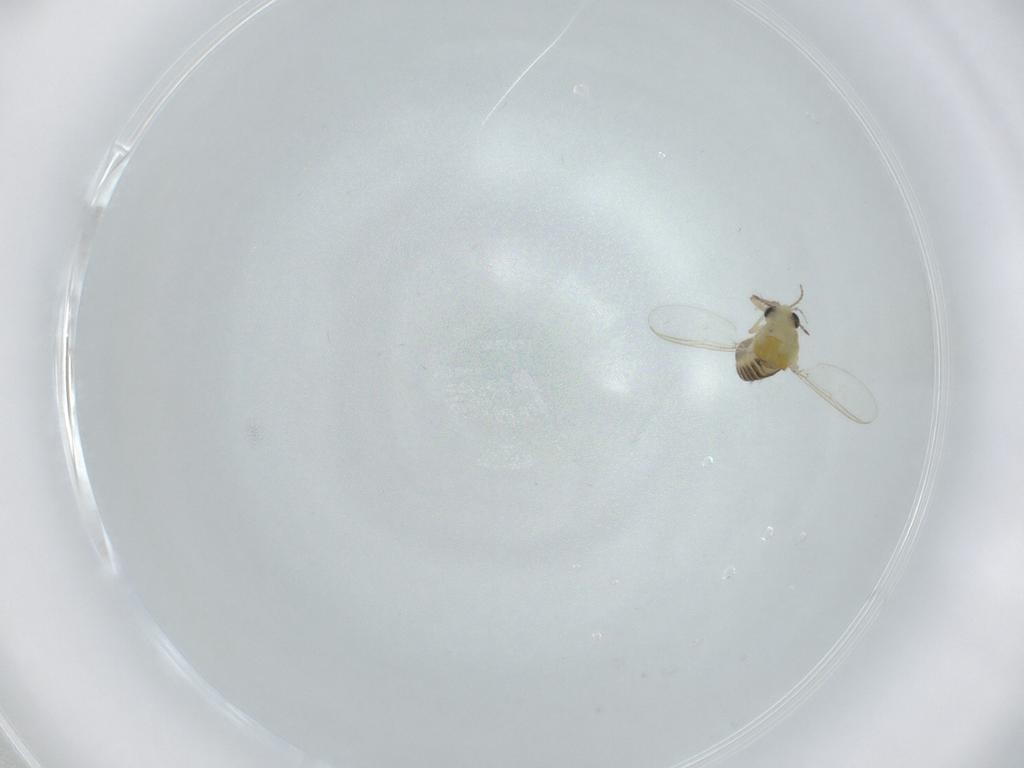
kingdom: Animalia
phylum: Arthropoda
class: Insecta
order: Diptera
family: Chironomidae
